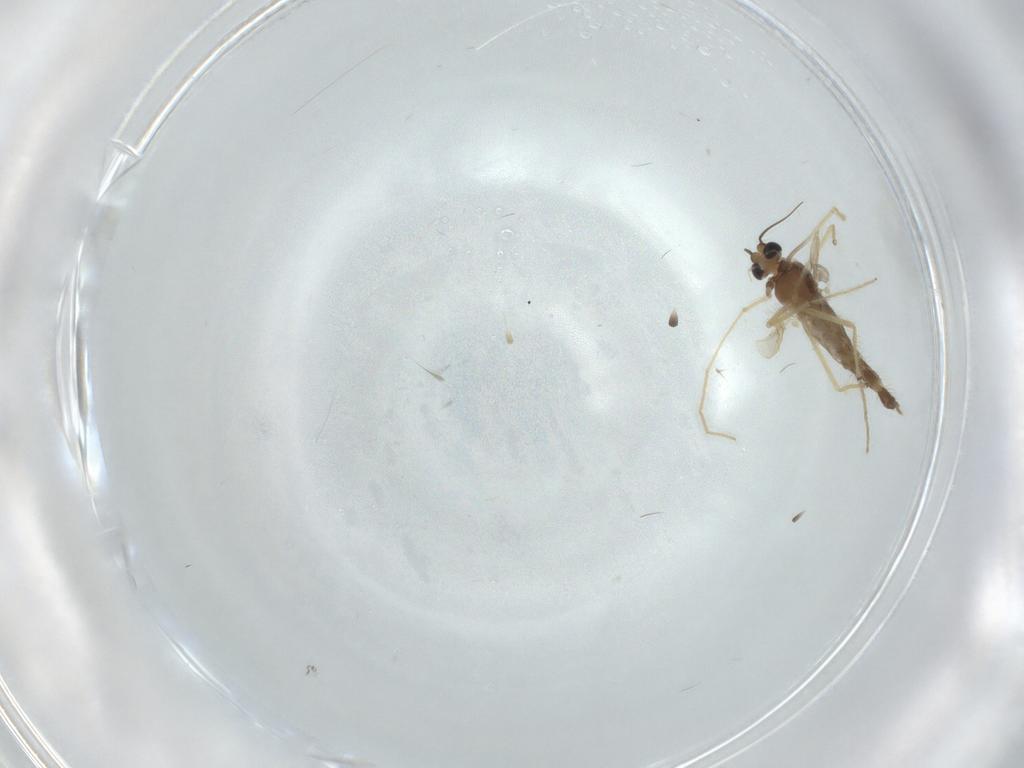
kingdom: Animalia
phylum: Arthropoda
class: Insecta
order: Diptera
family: Chironomidae
